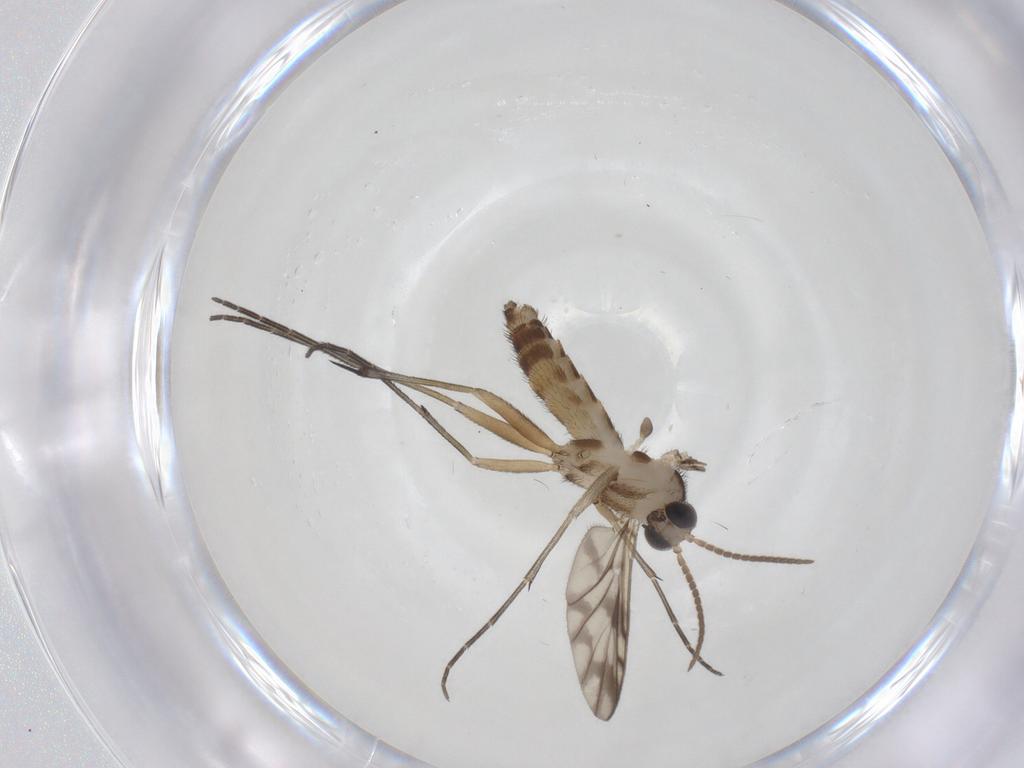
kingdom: Animalia
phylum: Arthropoda
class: Insecta
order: Diptera
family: Keroplatidae
